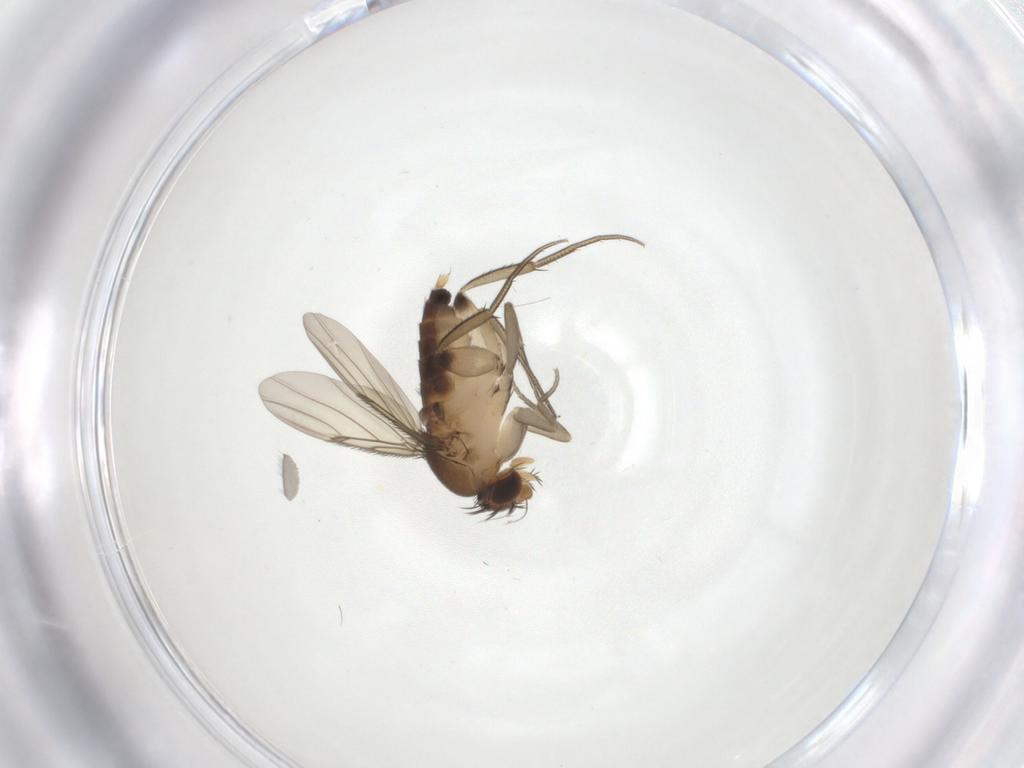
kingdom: Animalia
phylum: Arthropoda
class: Insecta
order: Diptera
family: Phoridae
